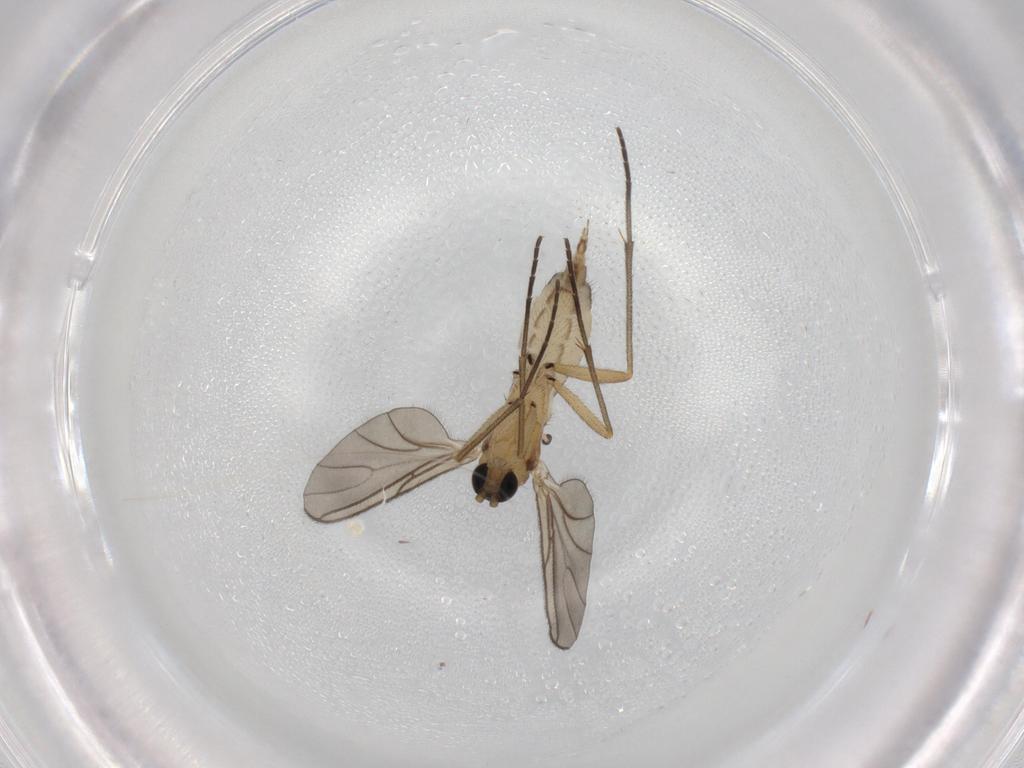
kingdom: Animalia
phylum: Arthropoda
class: Insecta
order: Diptera
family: Sciaridae
